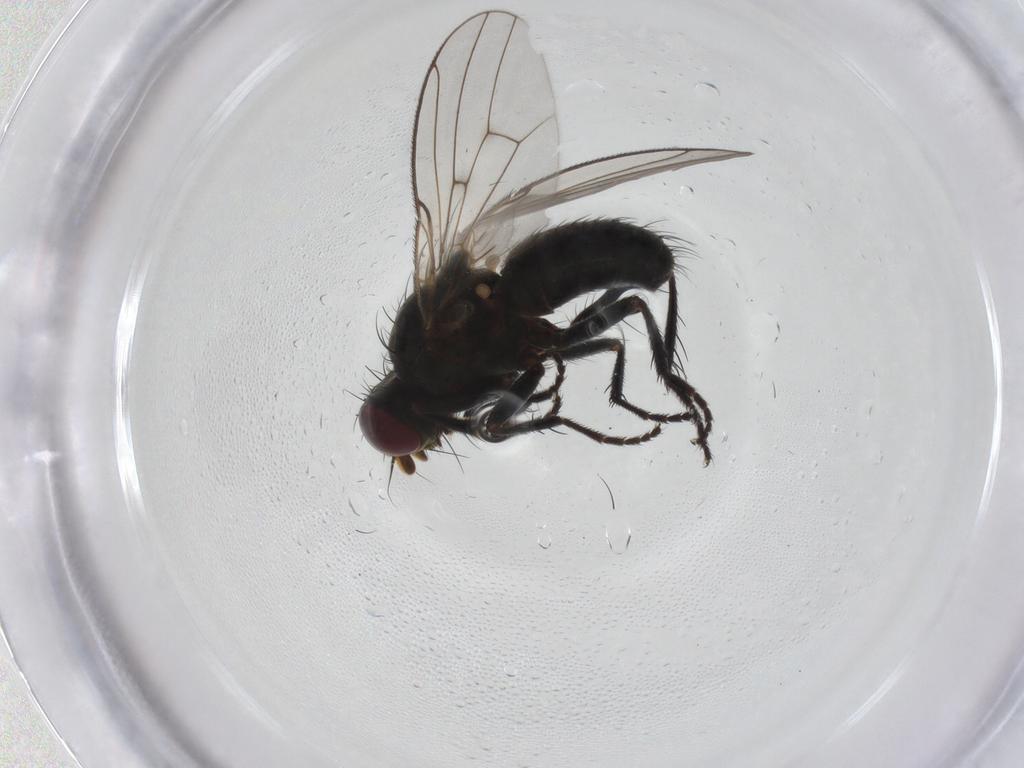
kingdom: Animalia
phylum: Arthropoda
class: Insecta
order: Diptera
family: Muscidae
